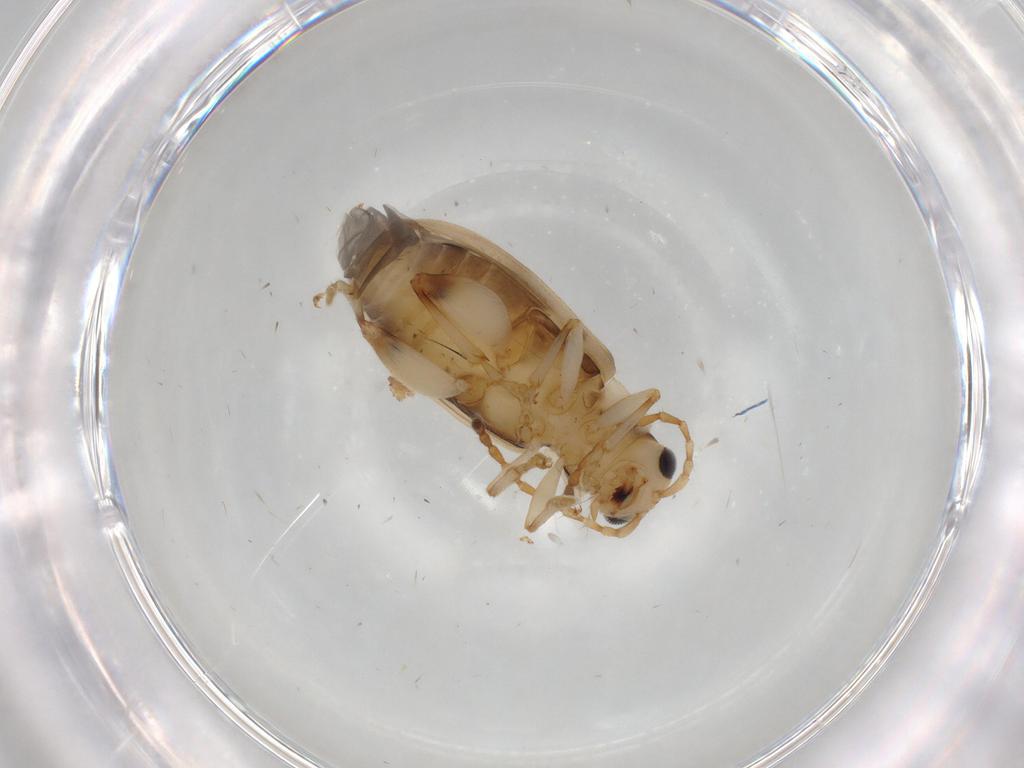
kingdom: Animalia
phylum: Arthropoda
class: Insecta
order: Coleoptera
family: Chrysomelidae
